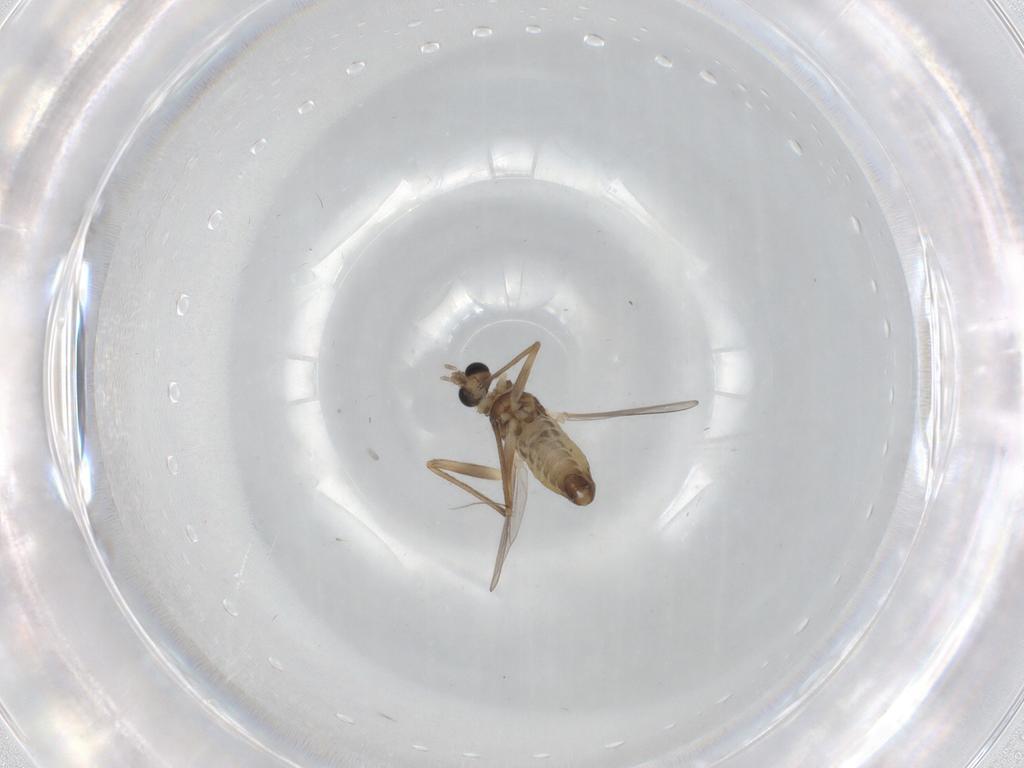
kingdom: Animalia
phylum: Arthropoda
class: Insecta
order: Diptera
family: Chironomidae
